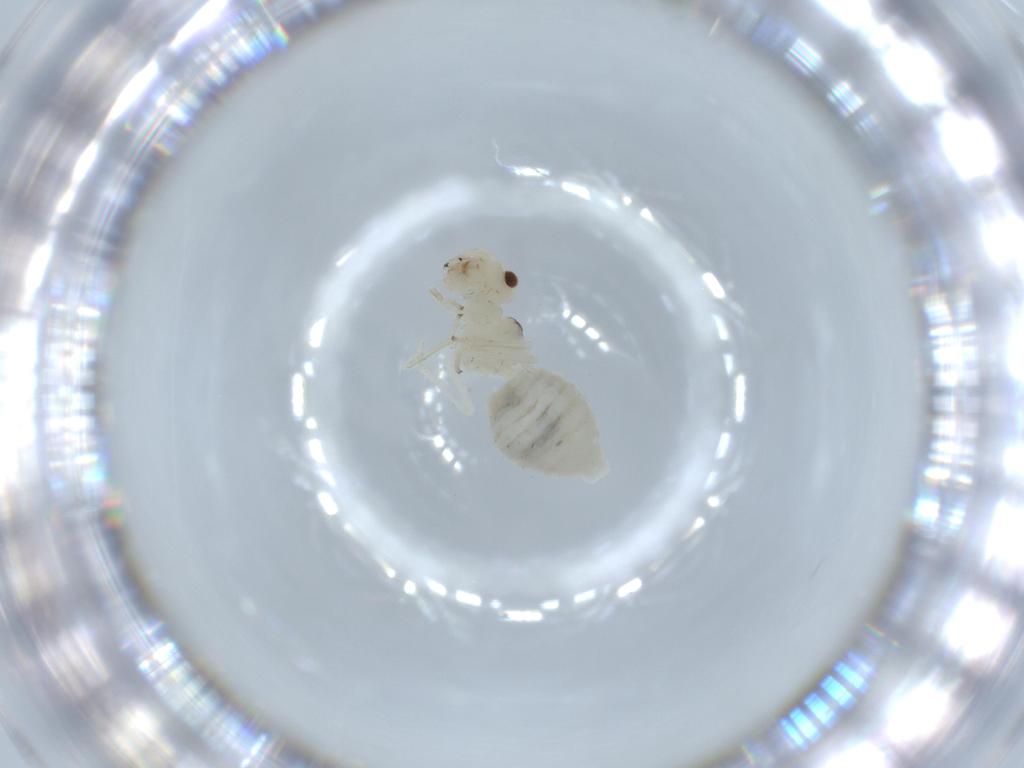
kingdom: Animalia
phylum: Arthropoda
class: Insecta
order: Psocodea
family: Caeciliusidae
